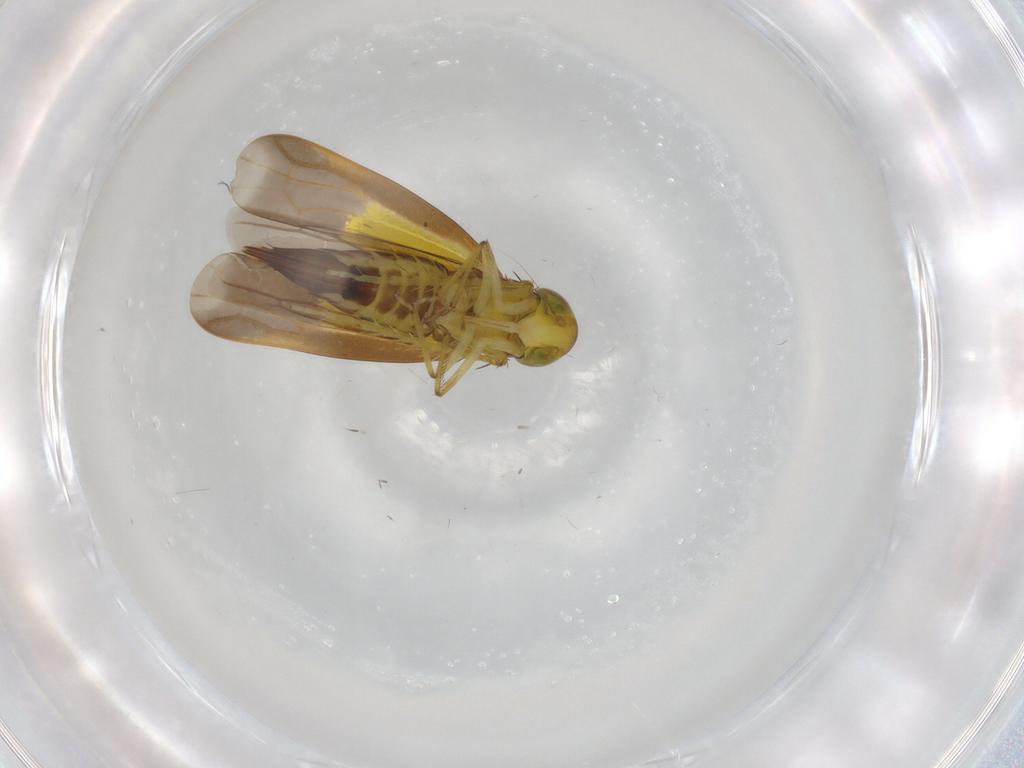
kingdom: Animalia
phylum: Arthropoda
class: Insecta
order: Hemiptera
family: Cicadellidae
